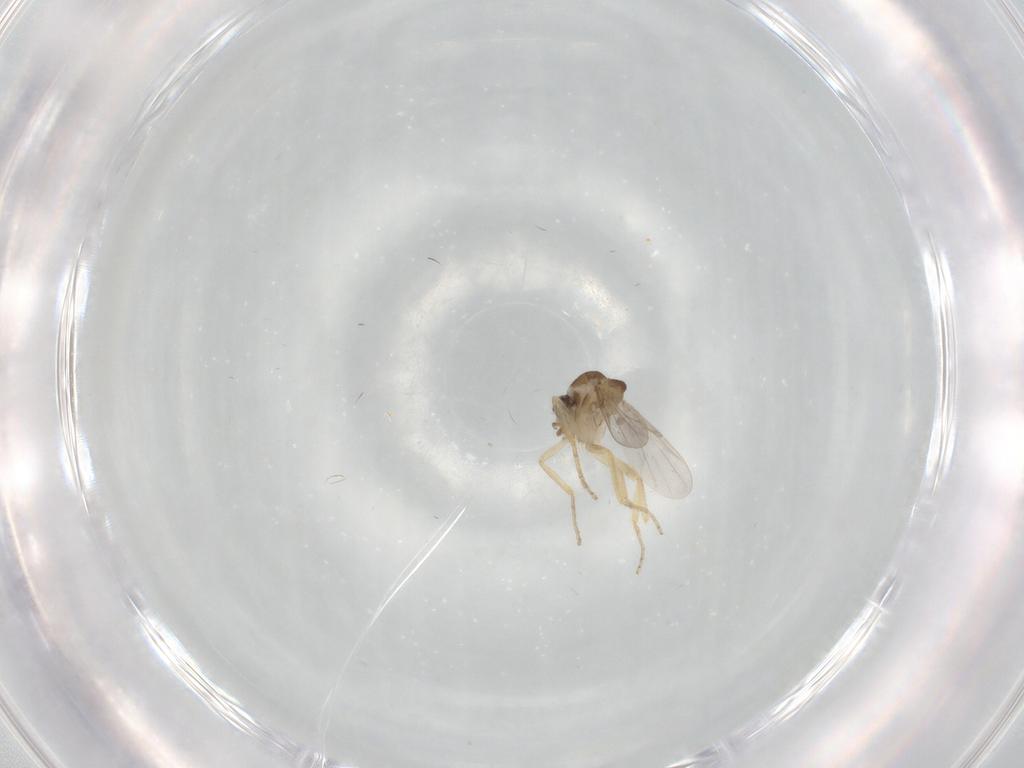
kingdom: Animalia
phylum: Arthropoda
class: Insecta
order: Diptera
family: Ceratopogonidae
